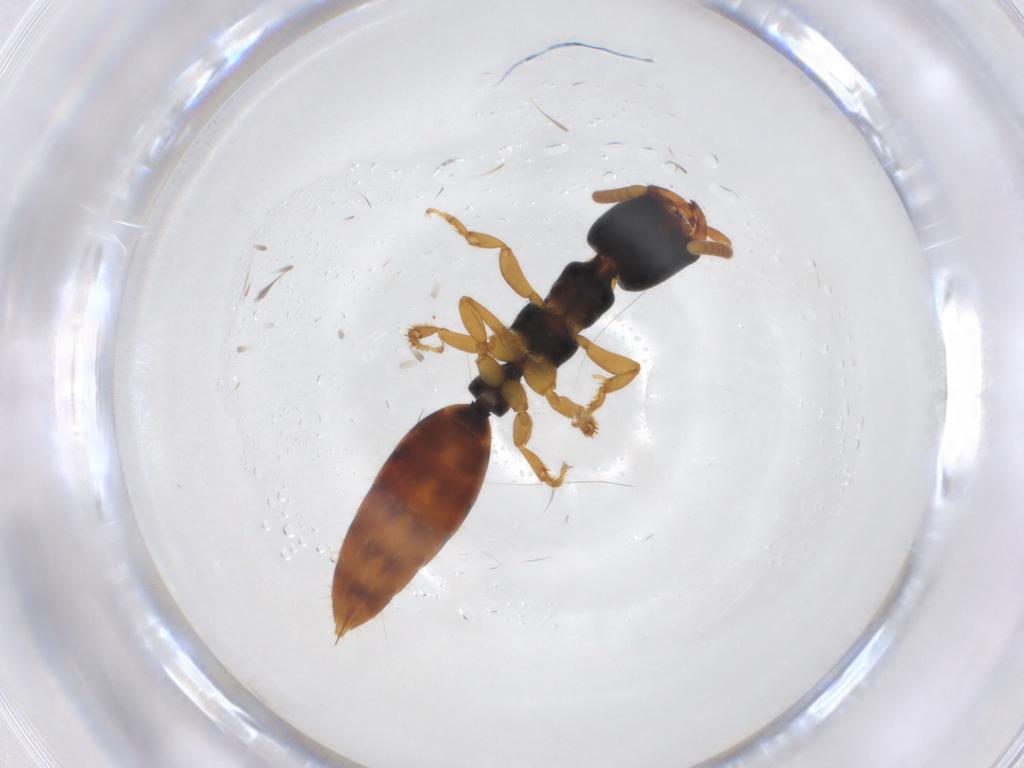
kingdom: Animalia
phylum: Arthropoda
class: Insecta
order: Hymenoptera
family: Bethylidae
